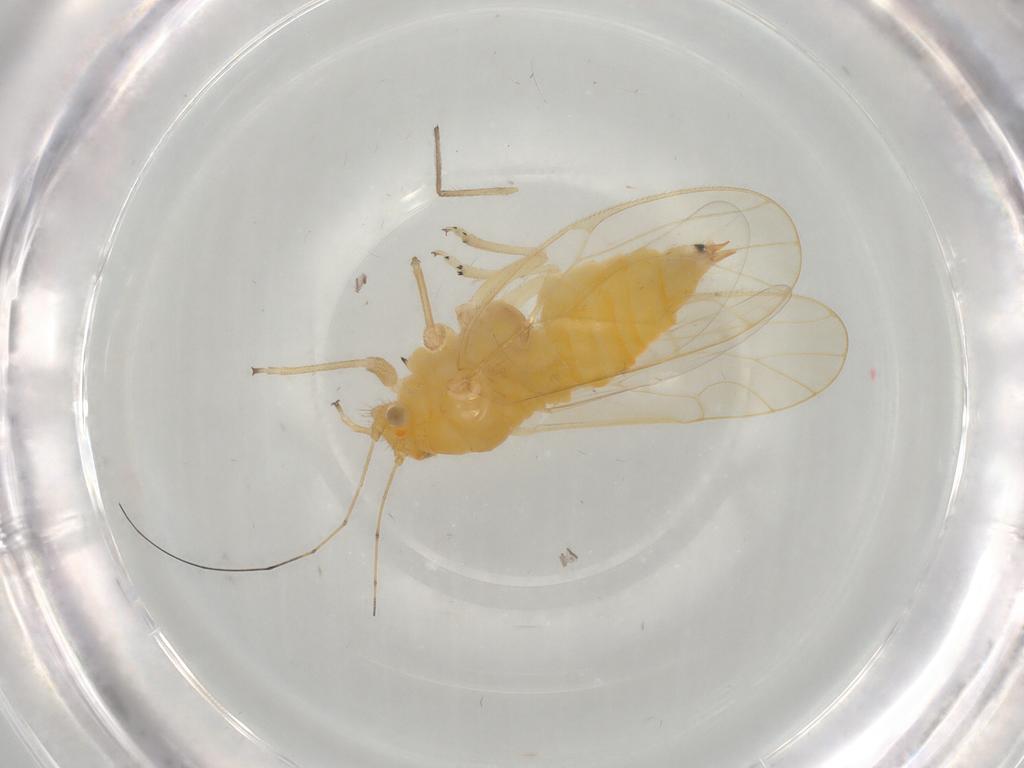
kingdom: Animalia
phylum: Arthropoda
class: Insecta
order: Hemiptera
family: Psyllidae
